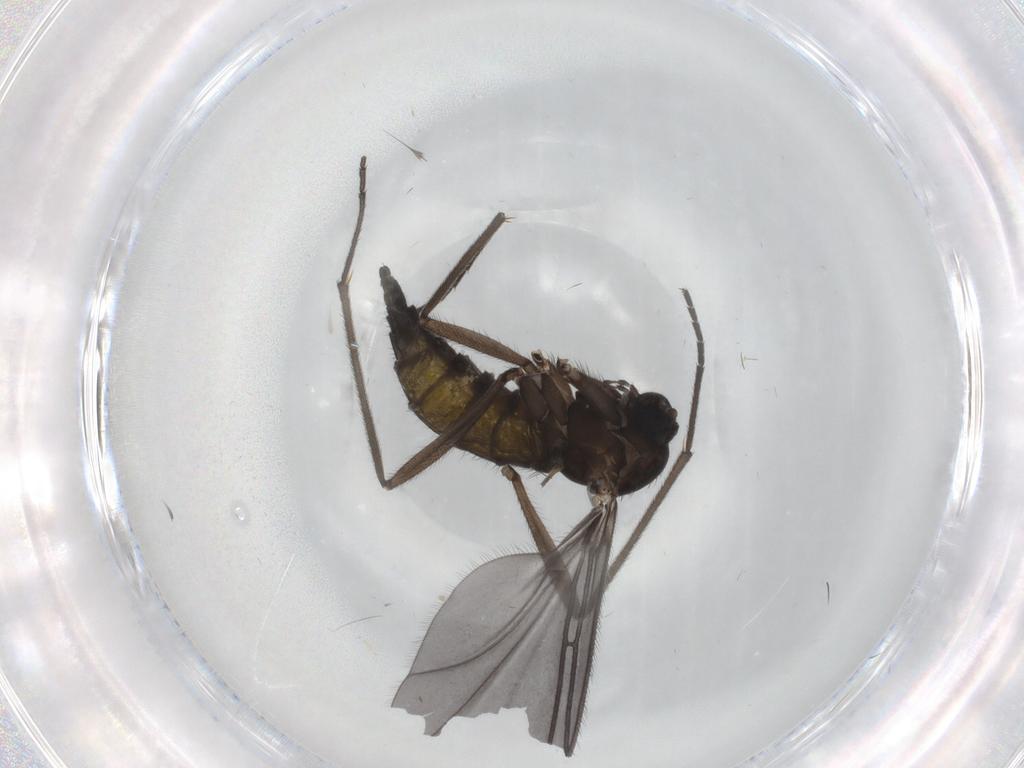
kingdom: Animalia
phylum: Arthropoda
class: Insecta
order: Diptera
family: Sciaridae
